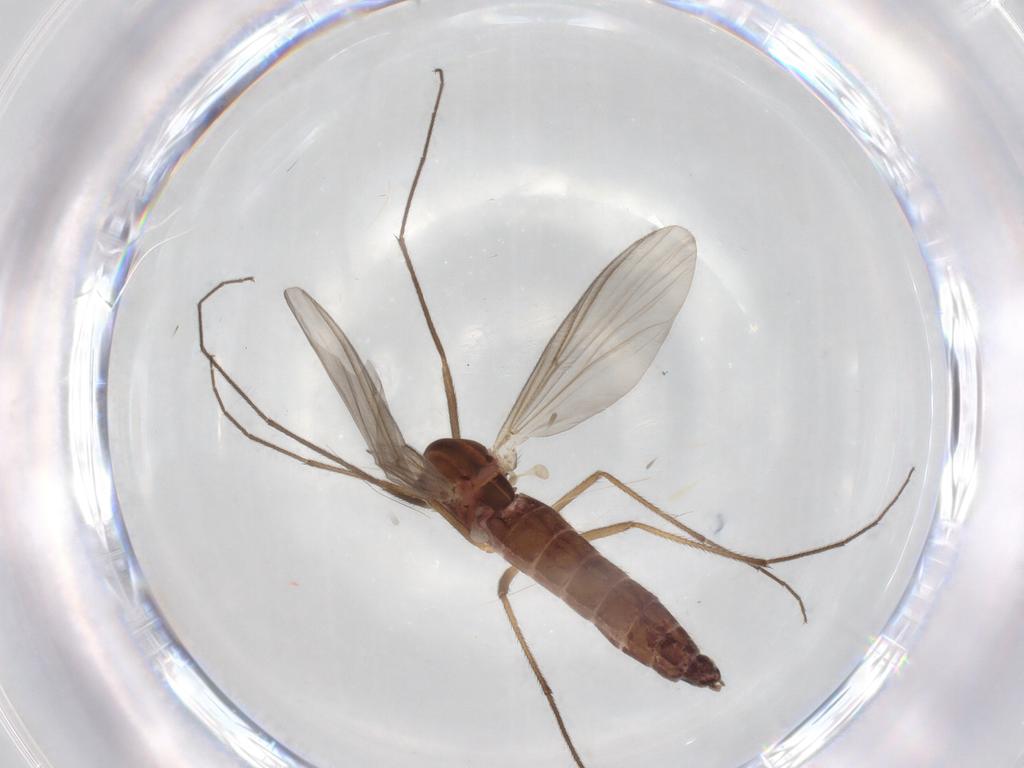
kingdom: Animalia
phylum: Arthropoda
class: Insecta
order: Diptera
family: Chironomidae
